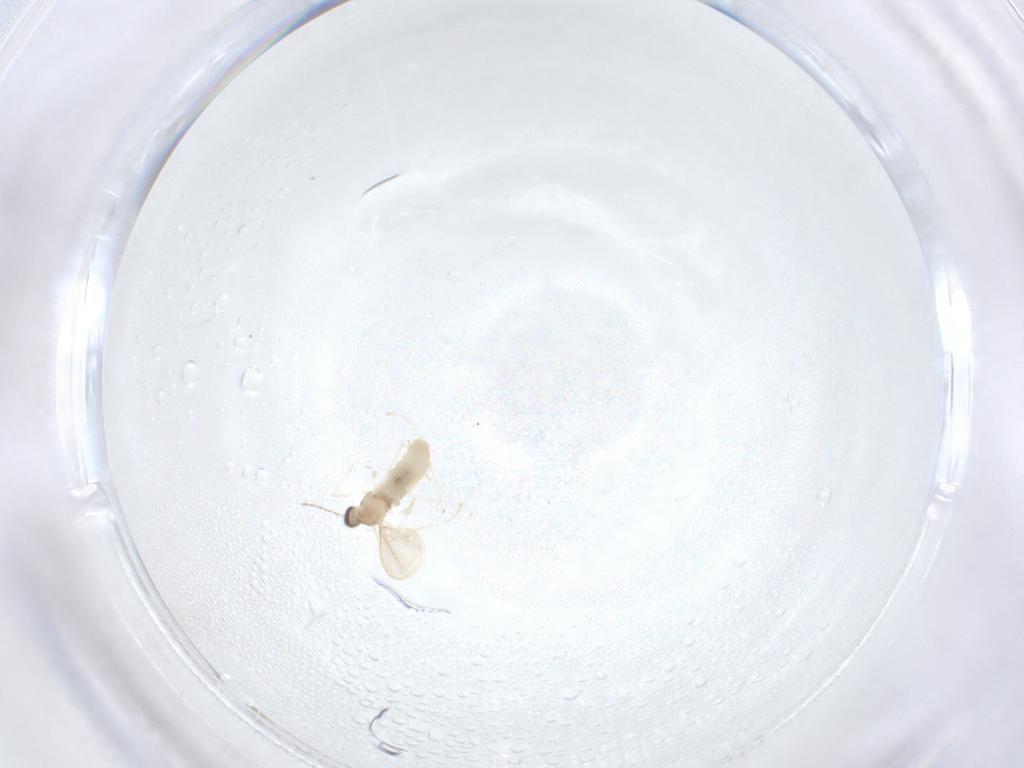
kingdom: Animalia
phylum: Arthropoda
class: Insecta
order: Diptera
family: Cecidomyiidae
